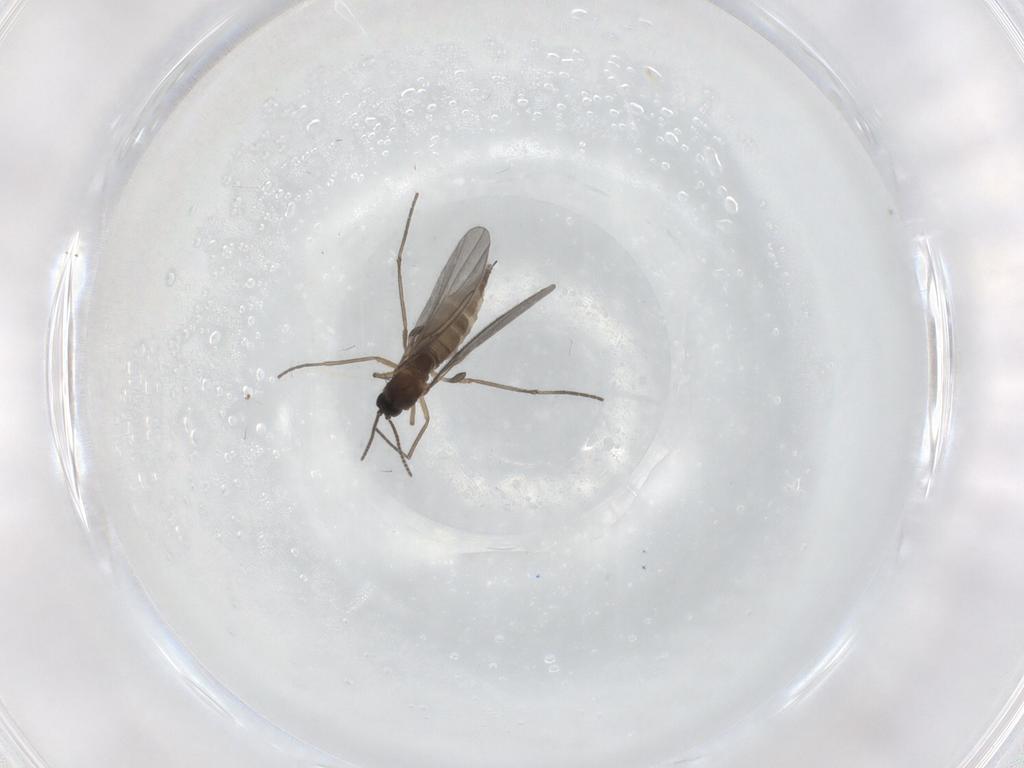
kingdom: Animalia
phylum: Arthropoda
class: Insecta
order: Diptera
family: Sciaridae
